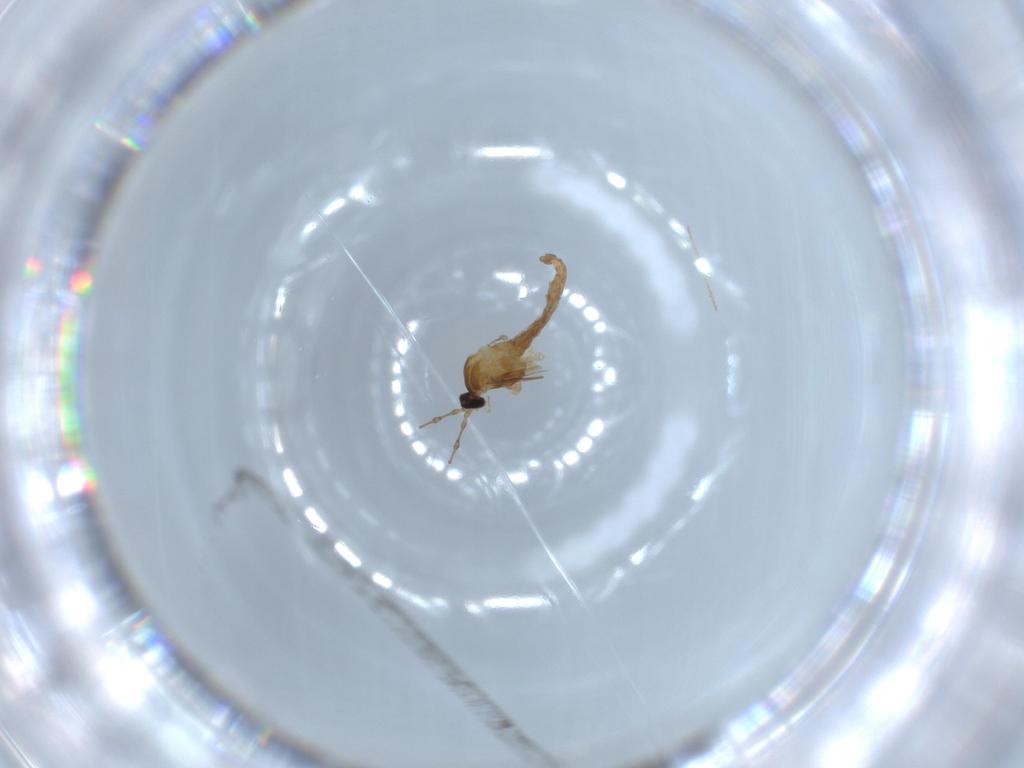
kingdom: Animalia
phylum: Arthropoda
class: Insecta
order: Diptera
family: Cecidomyiidae
